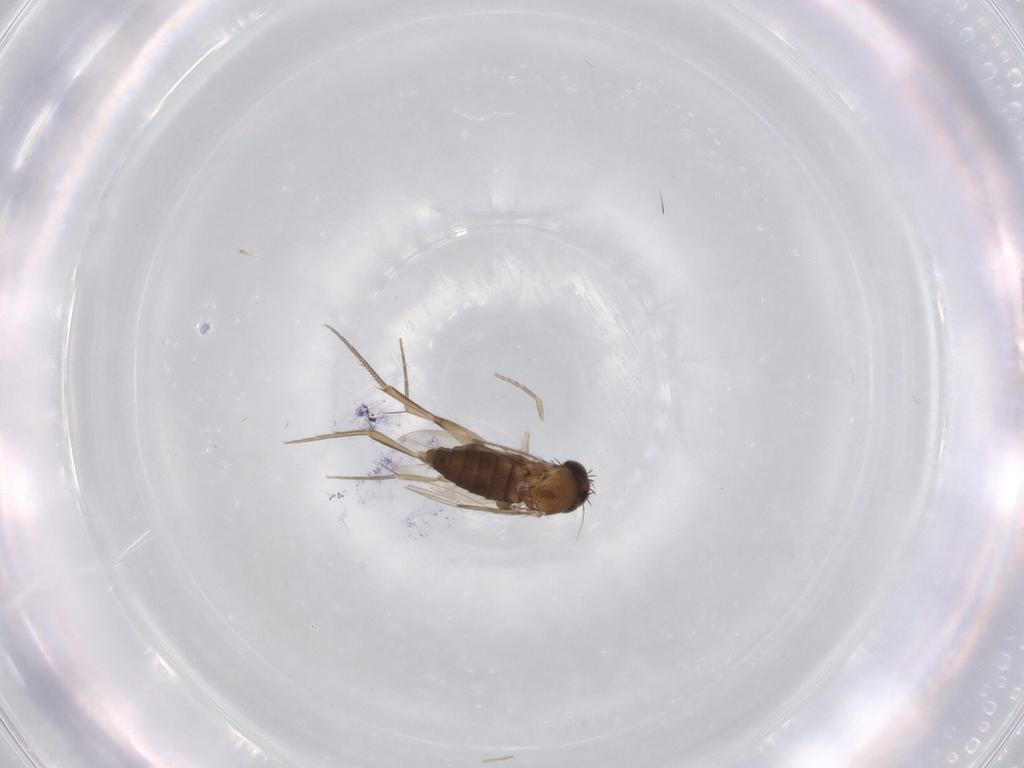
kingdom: Animalia
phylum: Arthropoda
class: Insecta
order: Diptera
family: Phoridae
